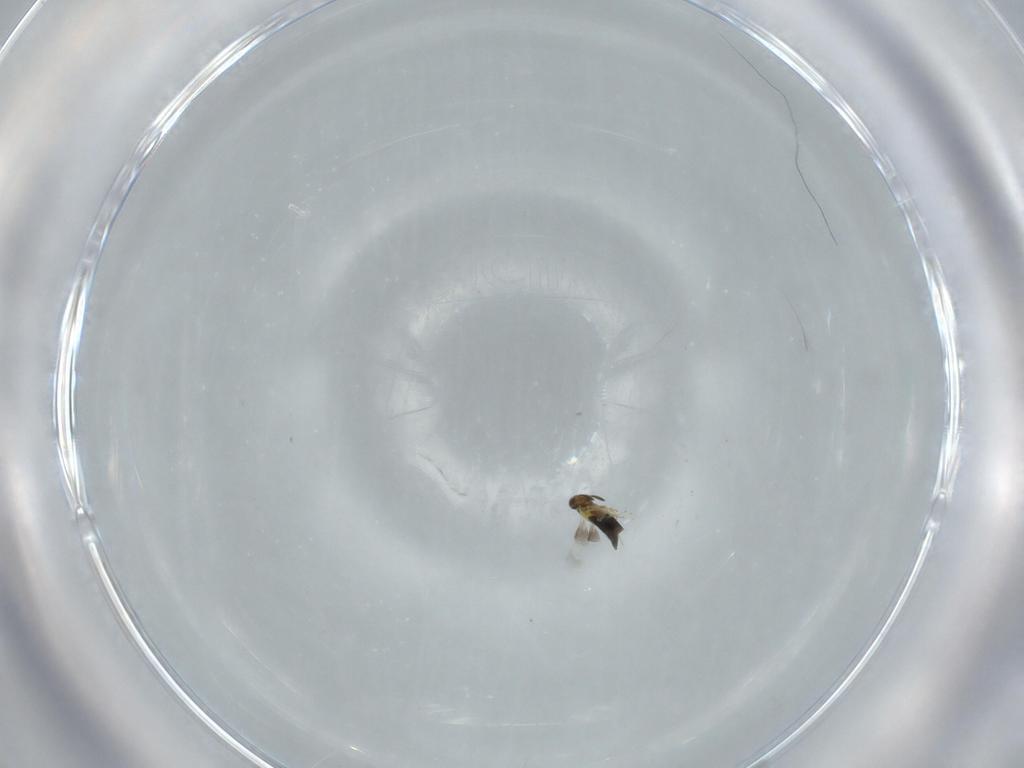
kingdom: Animalia
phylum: Arthropoda
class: Insecta
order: Hymenoptera
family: Signiphoridae
